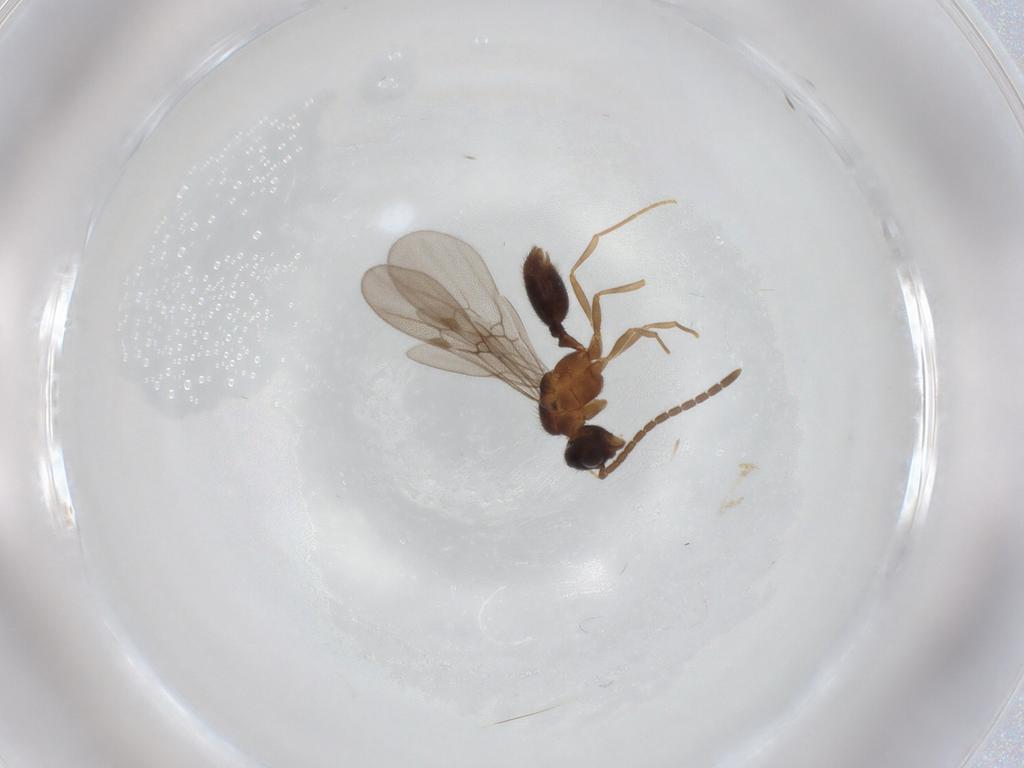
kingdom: Animalia
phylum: Arthropoda
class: Insecta
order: Hymenoptera
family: Formicidae
